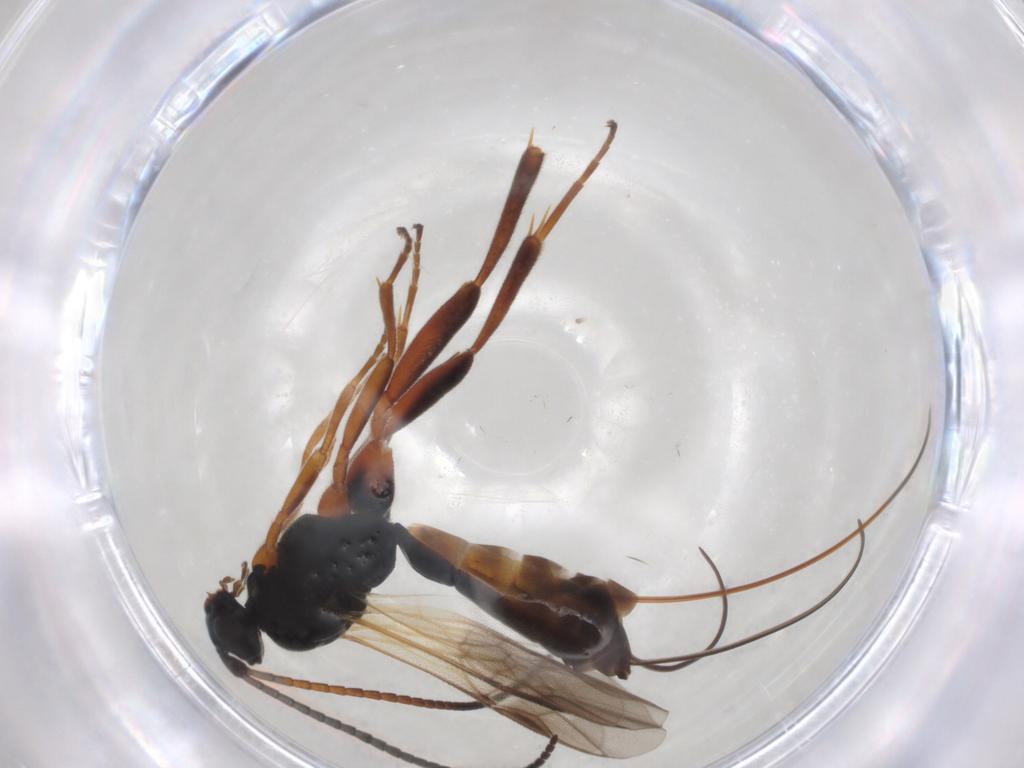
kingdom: Animalia
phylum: Arthropoda
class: Insecta
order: Hymenoptera
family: Braconidae
